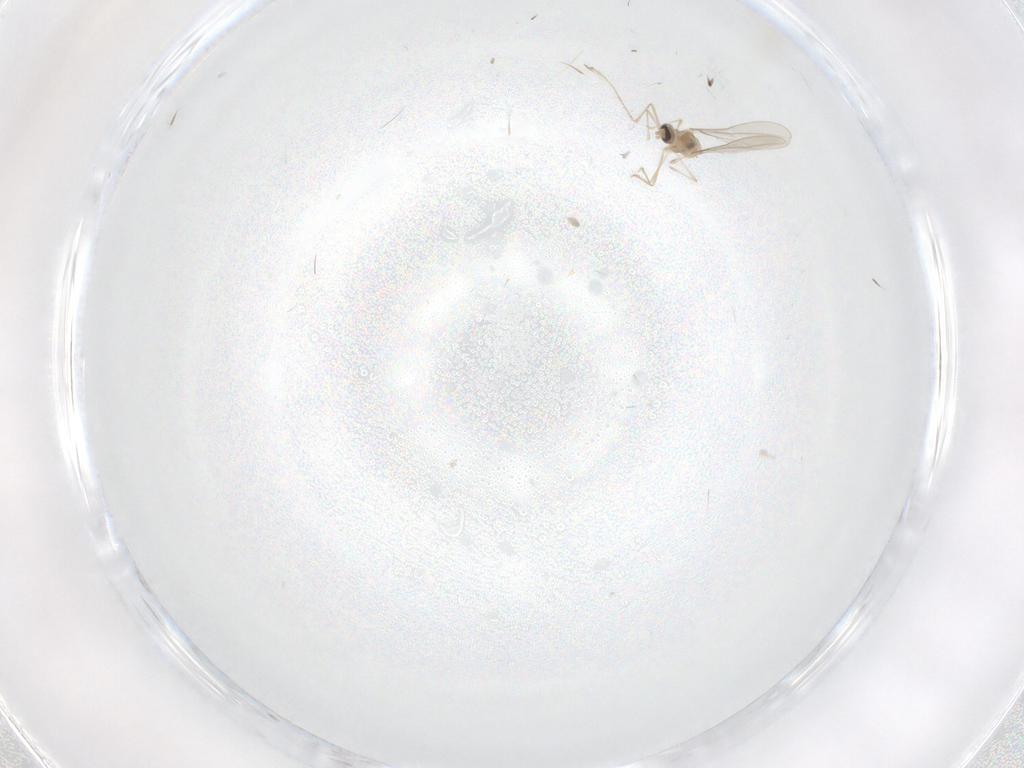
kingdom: Animalia
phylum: Arthropoda
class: Insecta
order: Diptera
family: Cecidomyiidae
